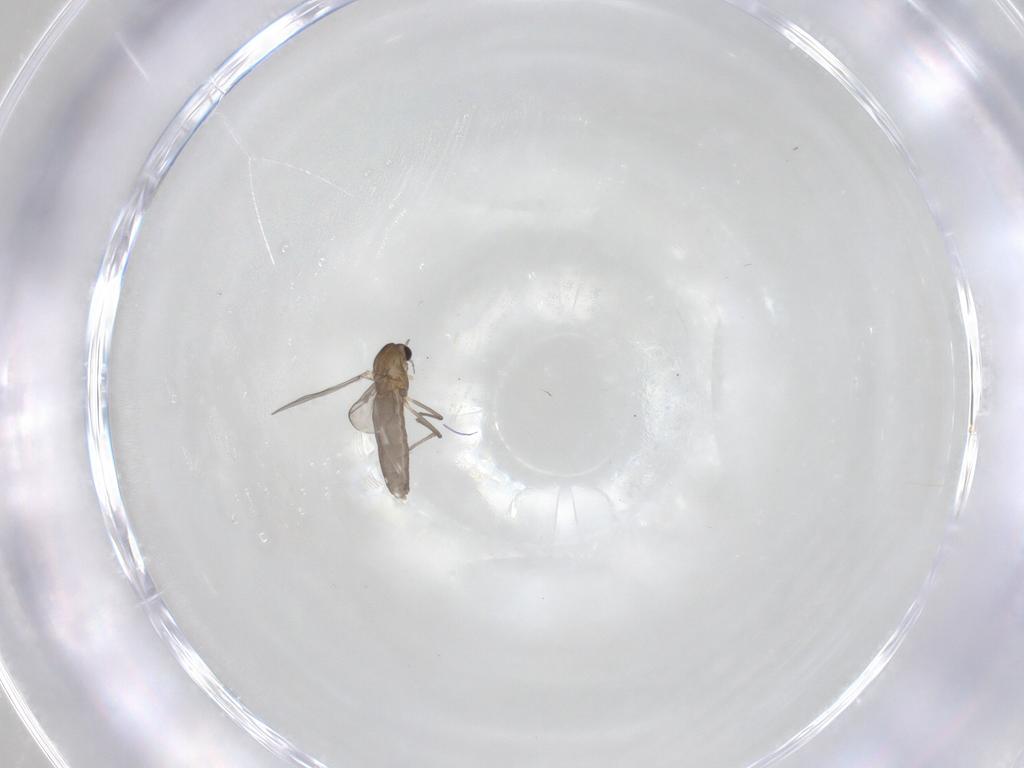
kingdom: Animalia
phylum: Arthropoda
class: Insecta
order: Diptera
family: Chironomidae
